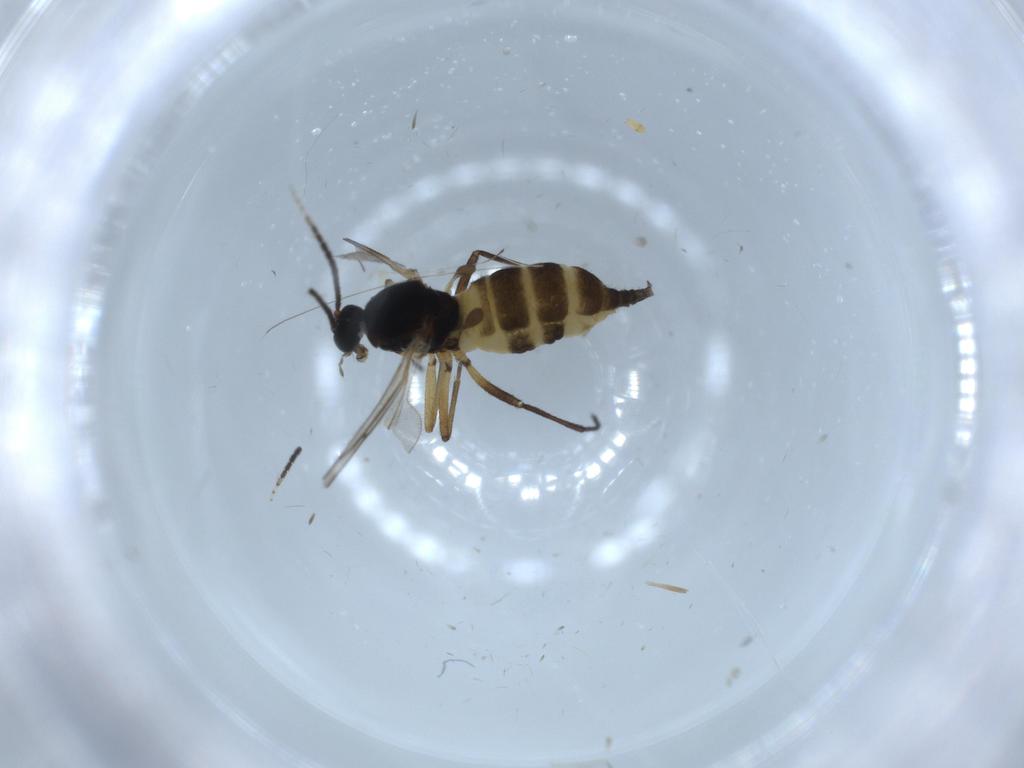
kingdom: Animalia
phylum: Arthropoda
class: Insecta
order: Diptera
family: Sciaridae
